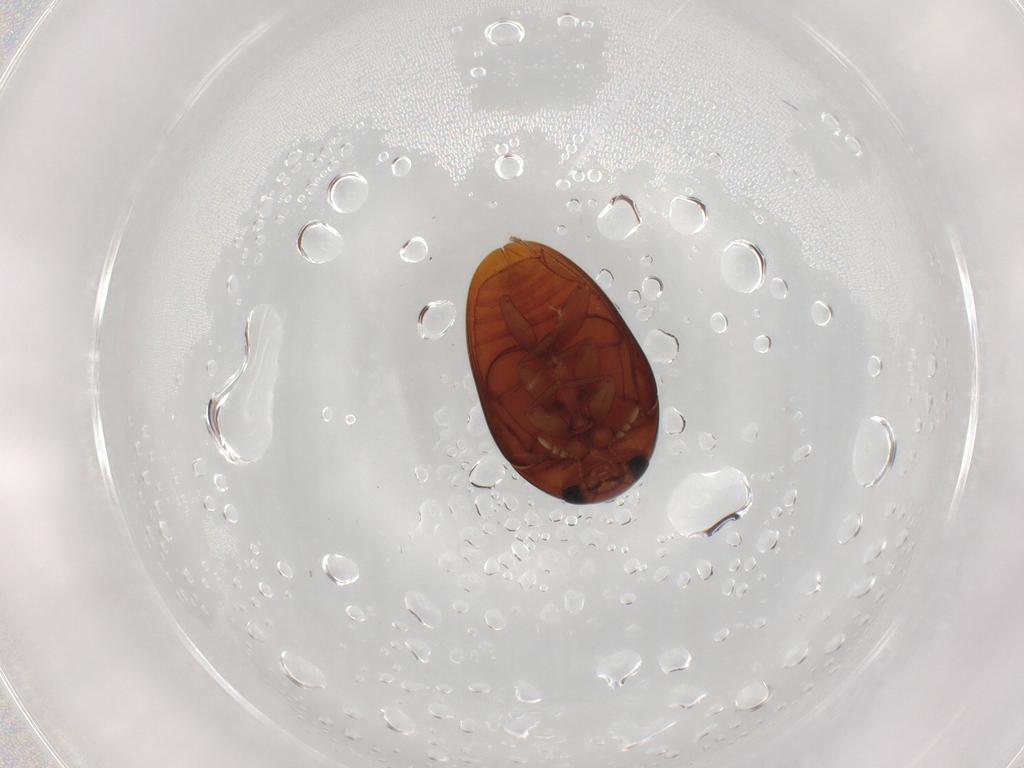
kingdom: Animalia
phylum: Arthropoda
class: Insecta
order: Coleoptera
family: Phalacridae
